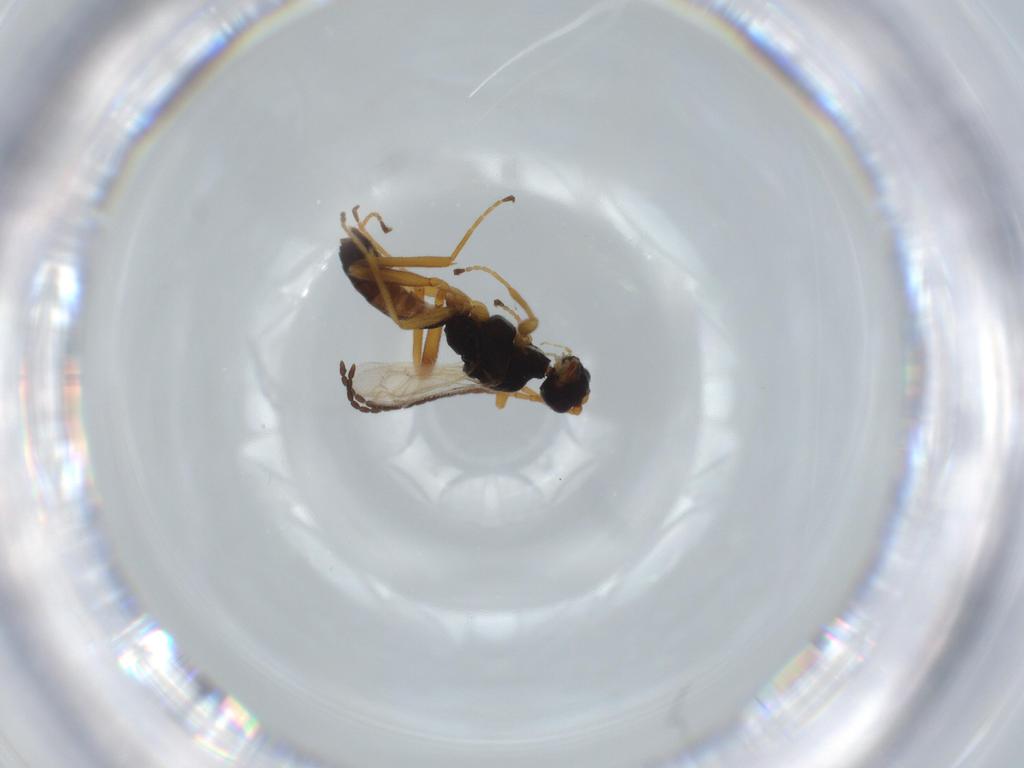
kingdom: Animalia
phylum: Arthropoda
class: Insecta
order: Hymenoptera
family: Braconidae
